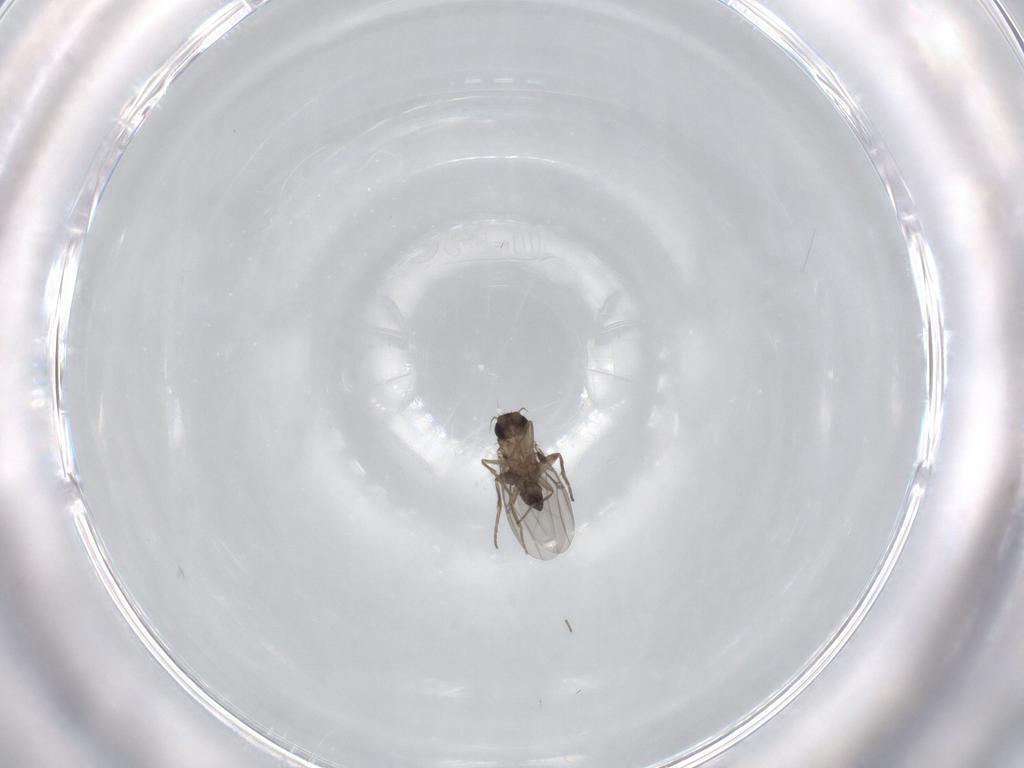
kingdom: Animalia
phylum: Arthropoda
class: Insecta
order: Diptera
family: Phoridae
